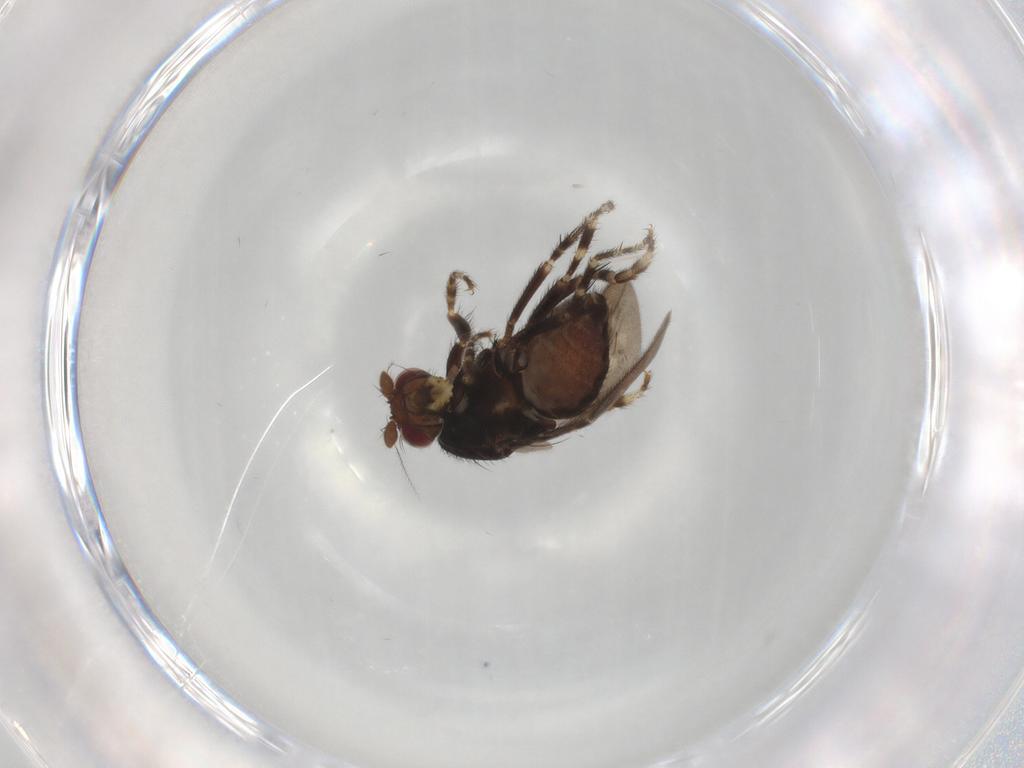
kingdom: Animalia
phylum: Arthropoda
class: Insecta
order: Diptera
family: Sphaeroceridae
